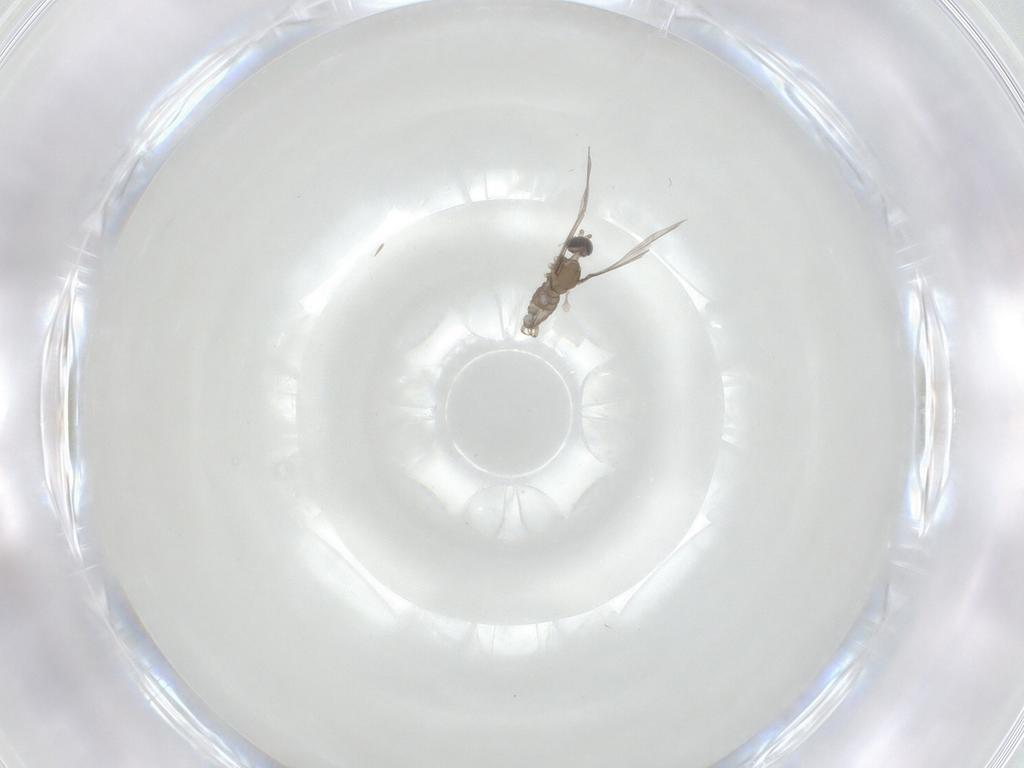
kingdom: Animalia
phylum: Arthropoda
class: Insecta
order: Diptera
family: Cecidomyiidae
